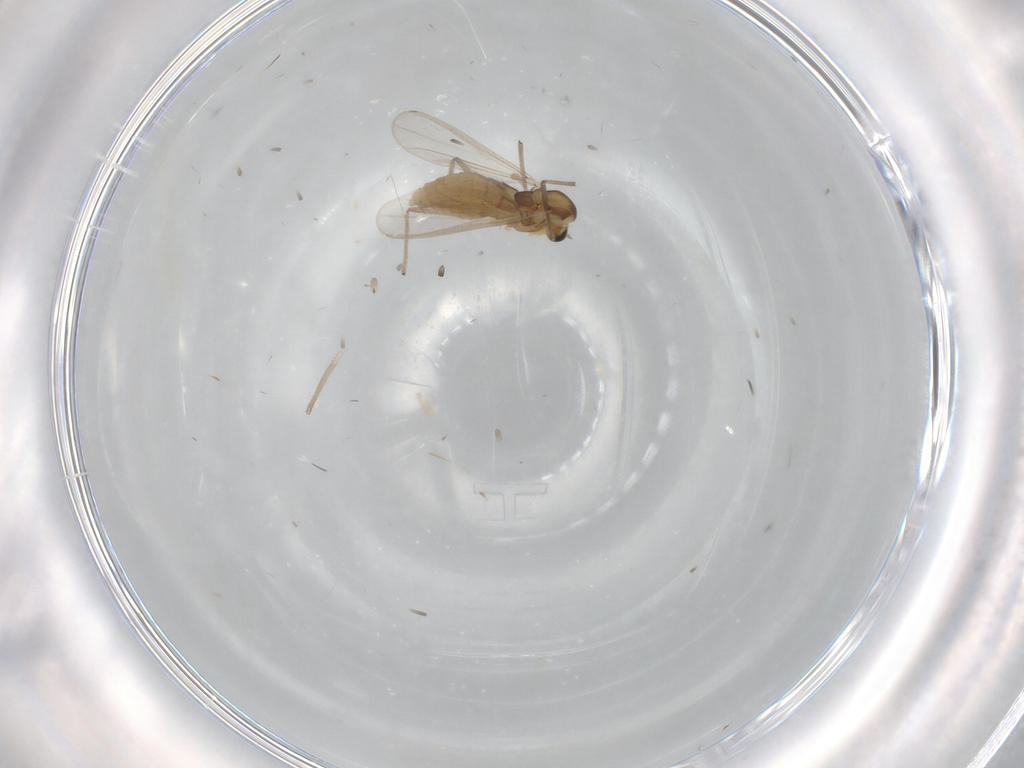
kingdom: Animalia
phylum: Arthropoda
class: Insecta
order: Diptera
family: Chironomidae
